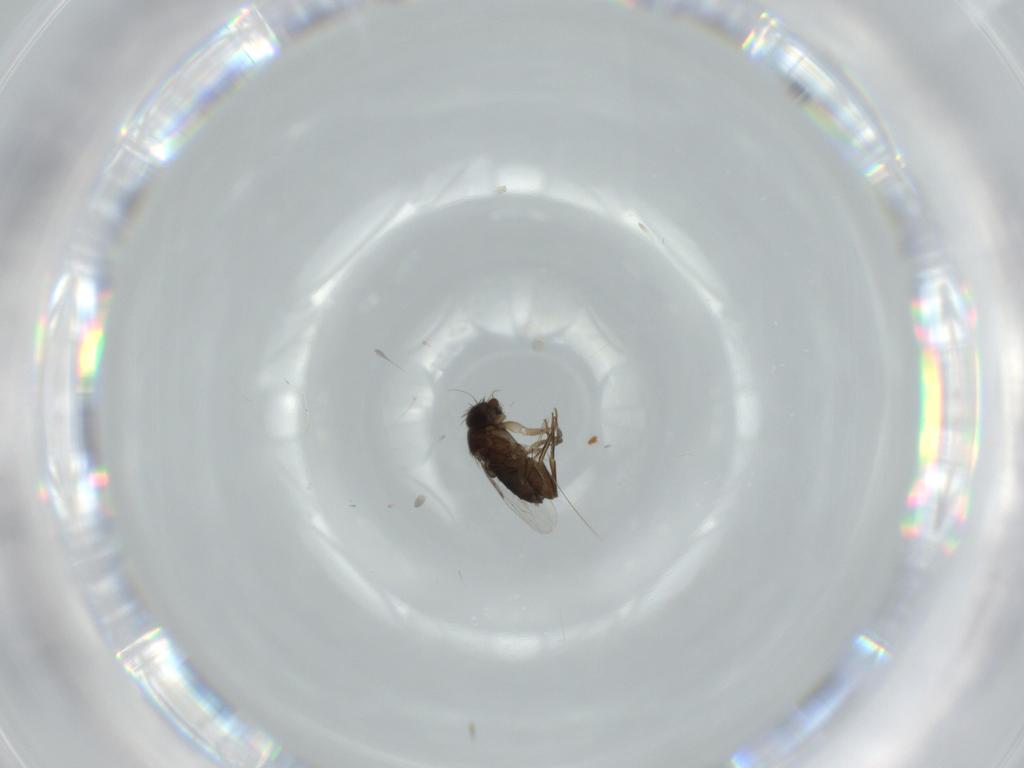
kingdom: Animalia
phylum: Arthropoda
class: Insecta
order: Diptera
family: Phoridae
